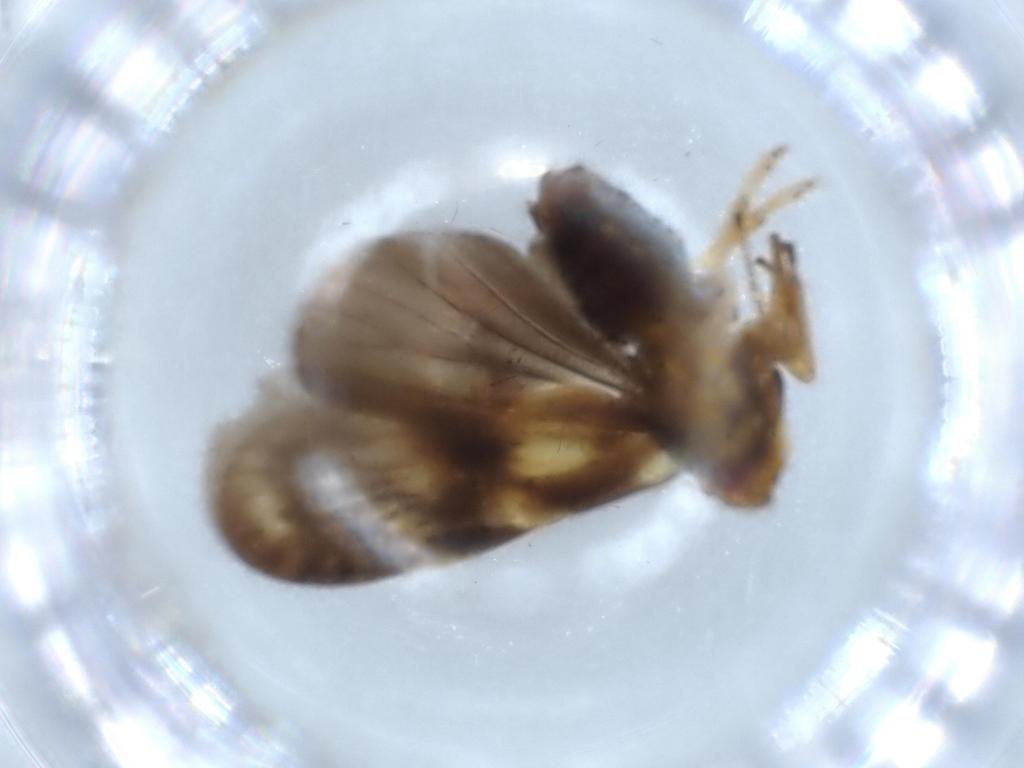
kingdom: Animalia
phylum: Arthropoda
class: Insecta
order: Hemiptera
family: Cixiidae
